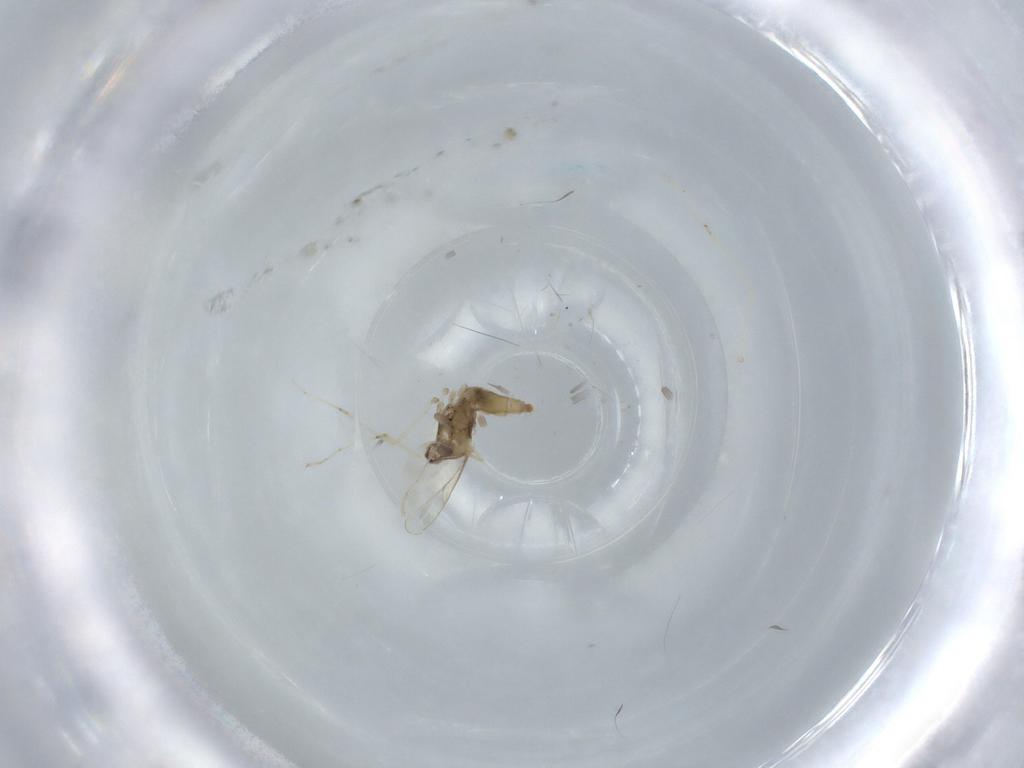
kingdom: Animalia
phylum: Arthropoda
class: Insecta
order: Diptera
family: Cecidomyiidae
